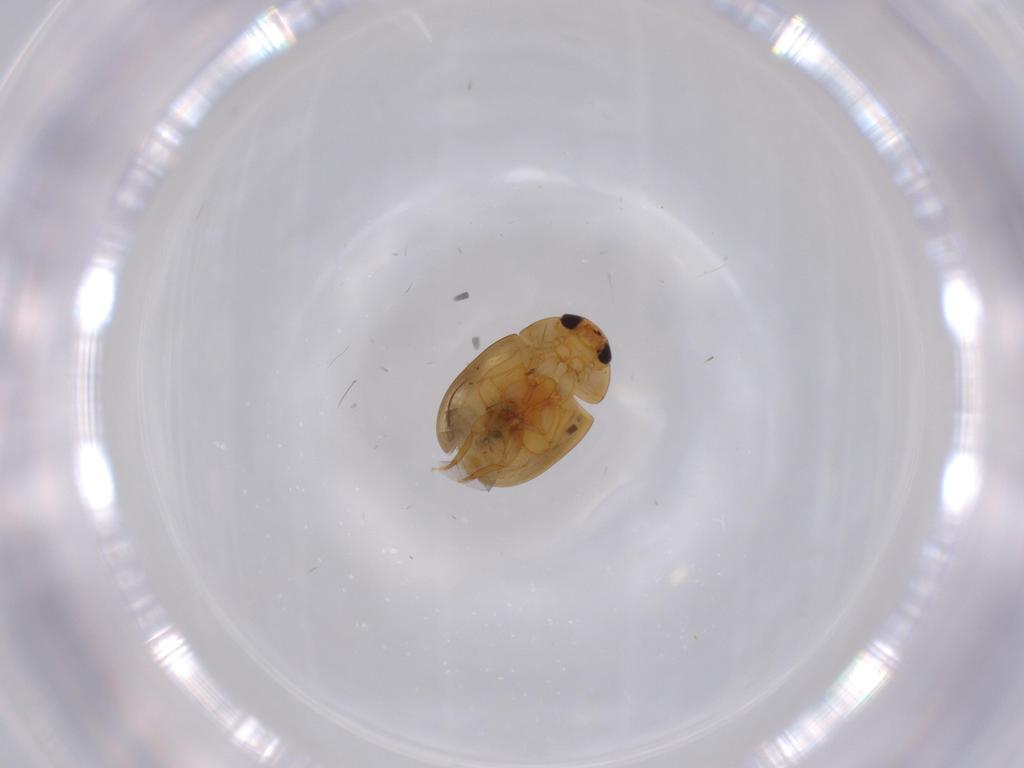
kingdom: Animalia
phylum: Arthropoda
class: Insecta
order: Coleoptera
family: Phalacridae
